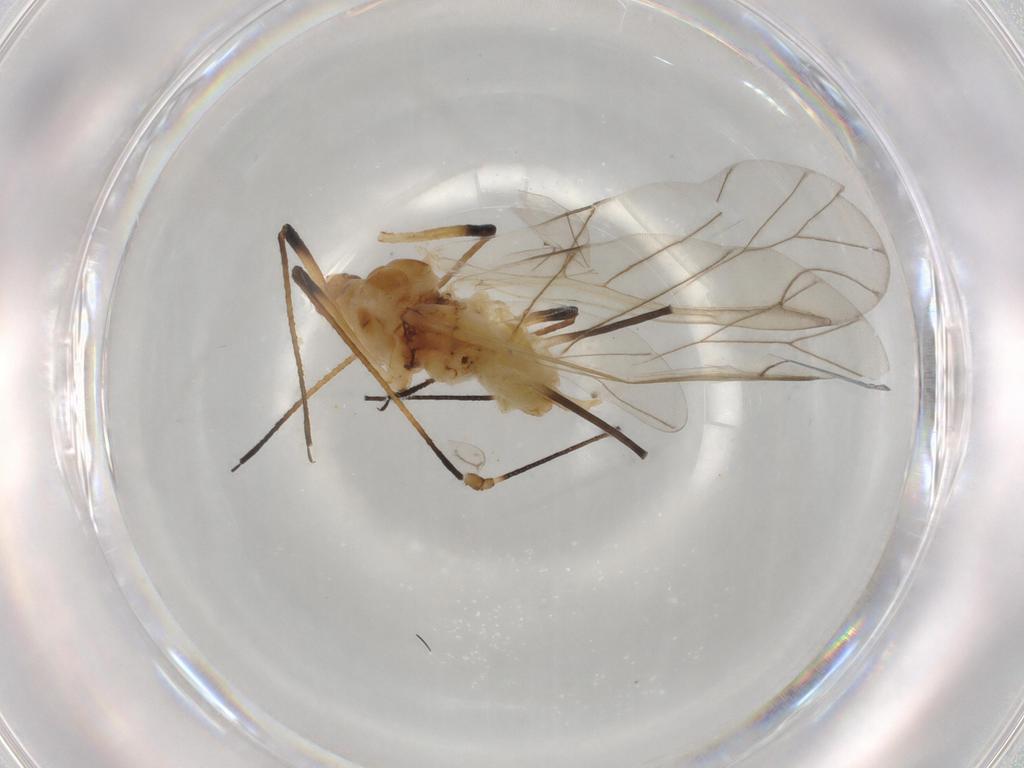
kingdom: Animalia
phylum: Arthropoda
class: Insecta
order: Hemiptera
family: Aphididae
